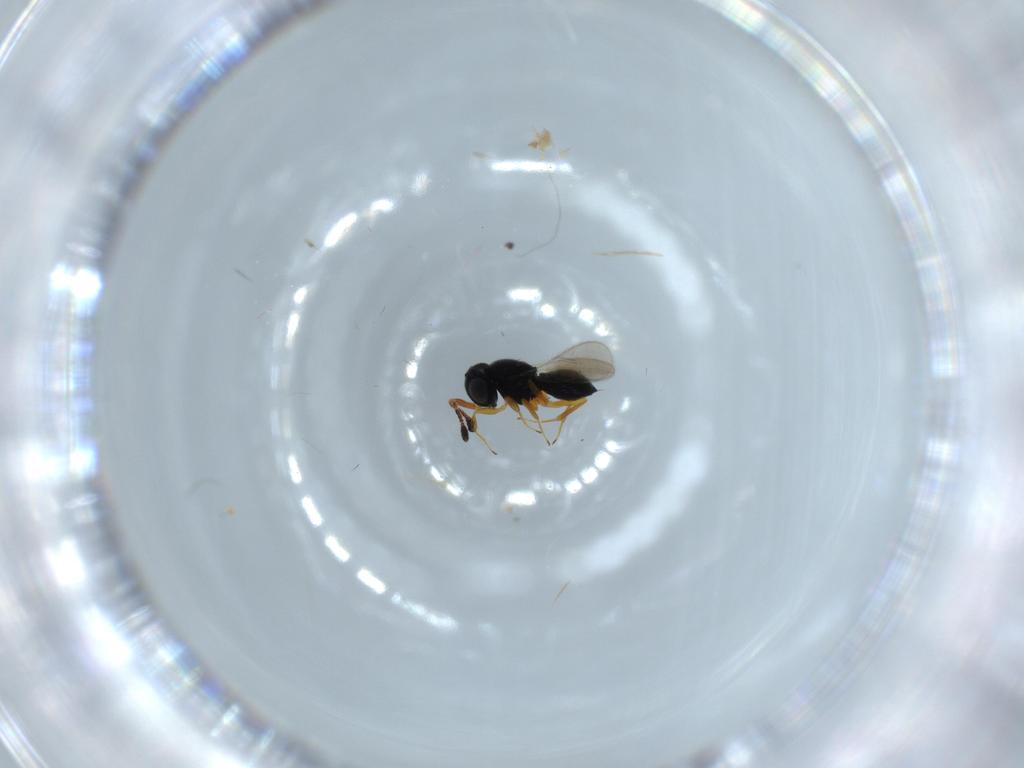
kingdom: Animalia
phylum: Arthropoda
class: Insecta
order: Hymenoptera
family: Scelionidae
